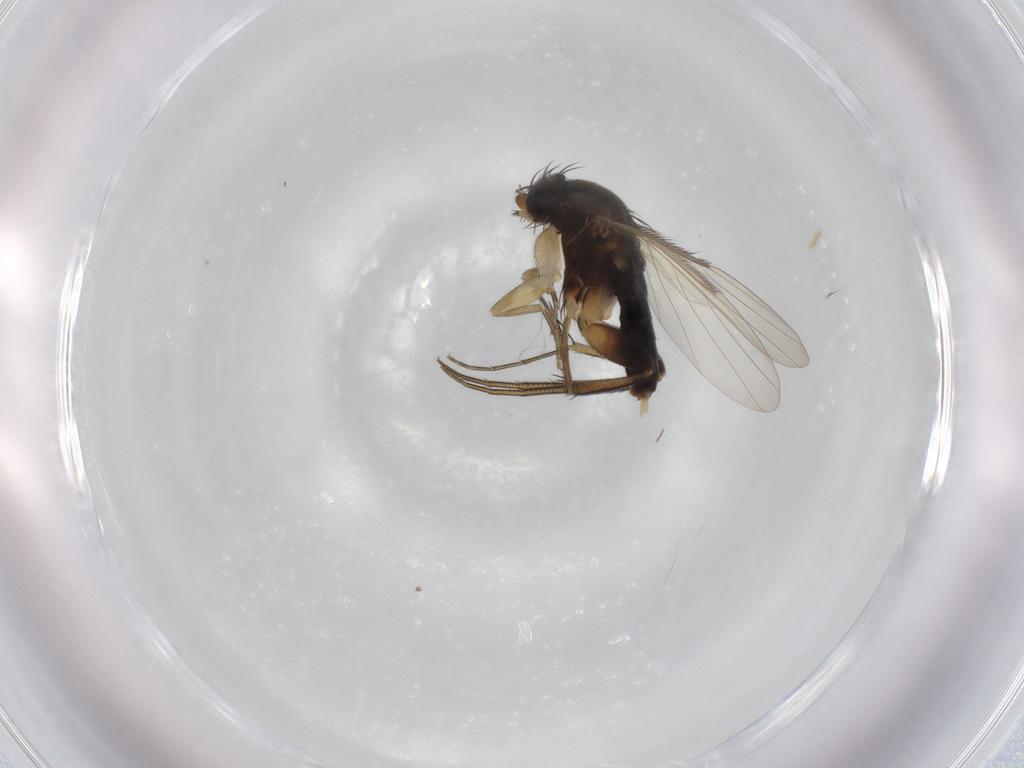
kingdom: Animalia
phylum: Arthropoda
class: Insecta
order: Diptera
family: Phoridae
